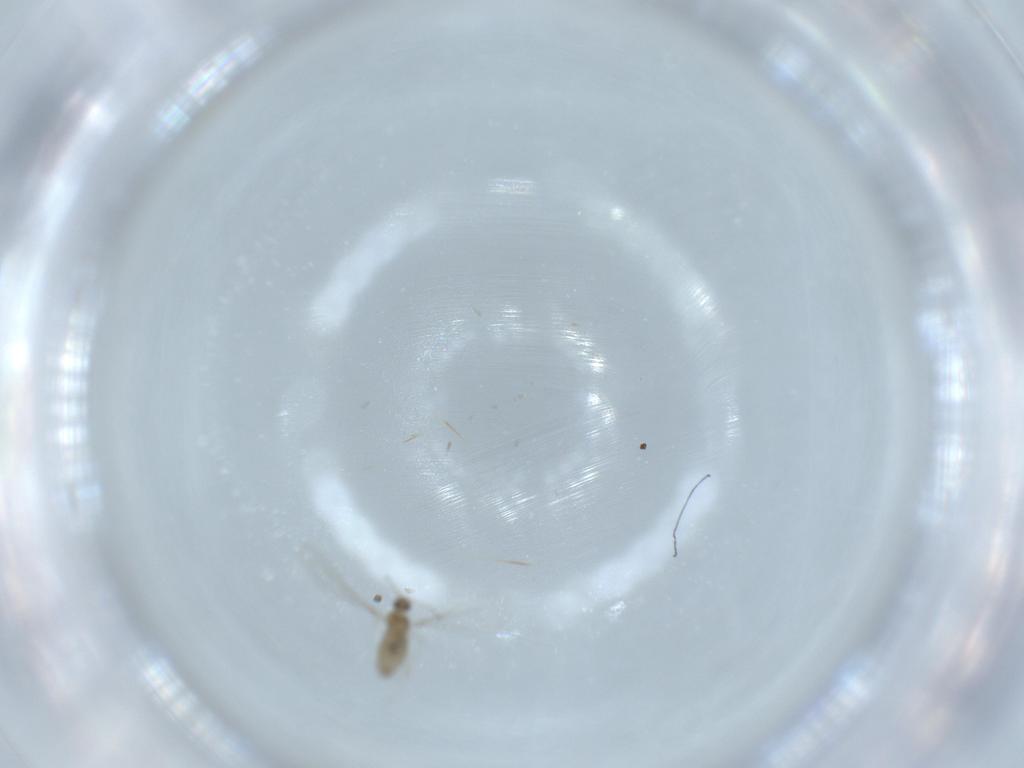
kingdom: Animalia
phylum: Arthropoda
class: Insecta
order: Diptera
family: Cecidomyiidae
